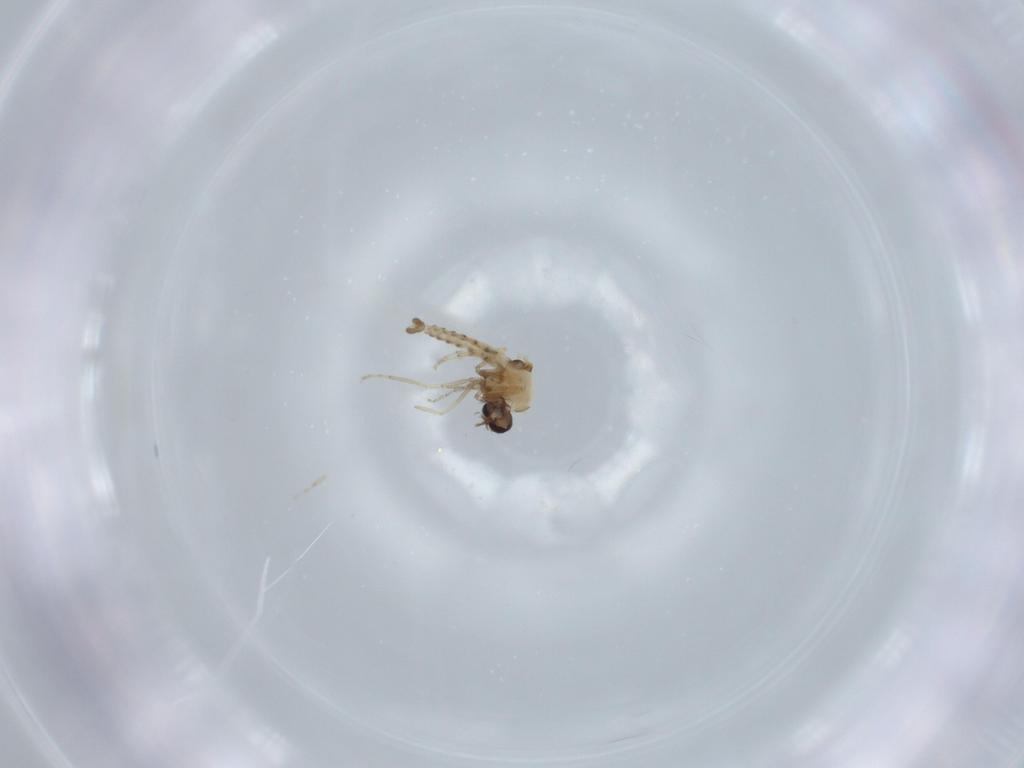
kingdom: Animalia
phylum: Arthropoda
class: Insecta
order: Diptera
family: Ceratopogonidae
